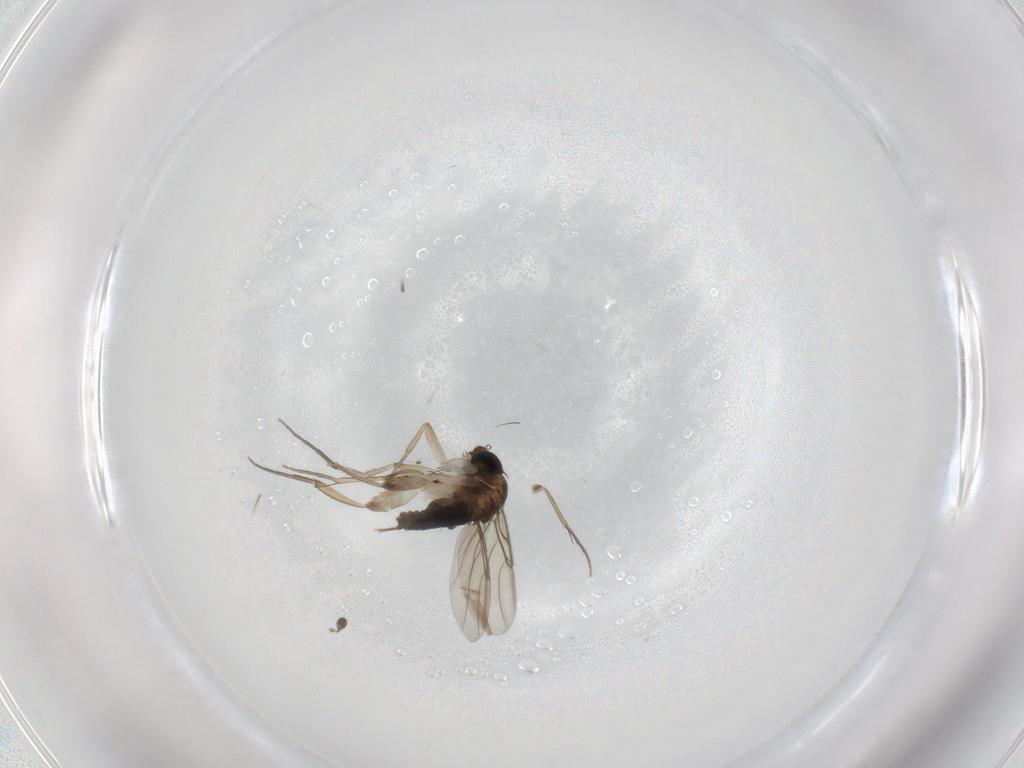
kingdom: Animalia
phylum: Arthropoda
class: Insecta
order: Diptera
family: Phoridae
